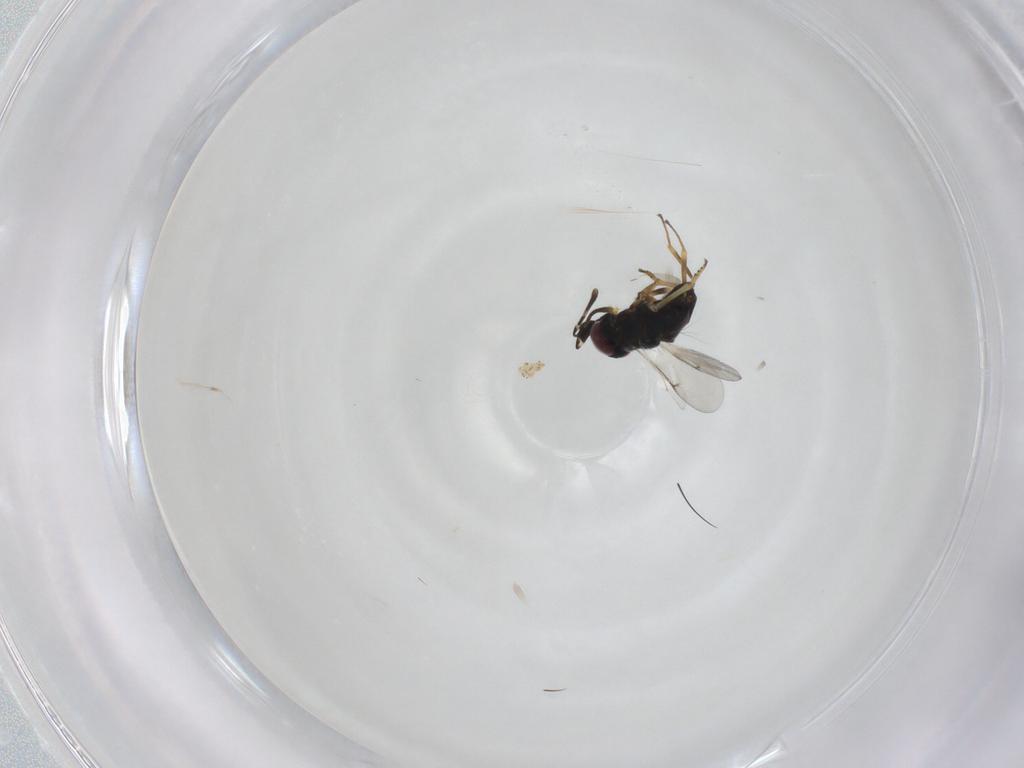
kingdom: Animalia
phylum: Arthropoda
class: Insecta
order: Hymenoptera
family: Encyrtidae
